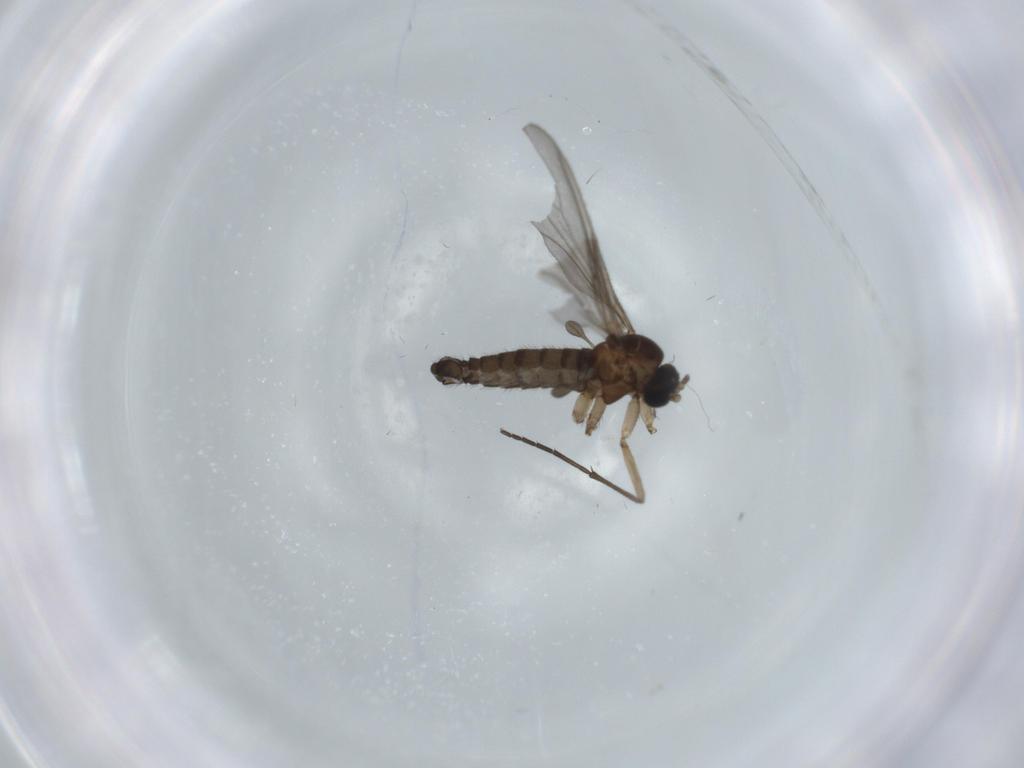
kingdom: Animalia
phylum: Arthropoda
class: Insecta
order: Diptera
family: Sciaridae
